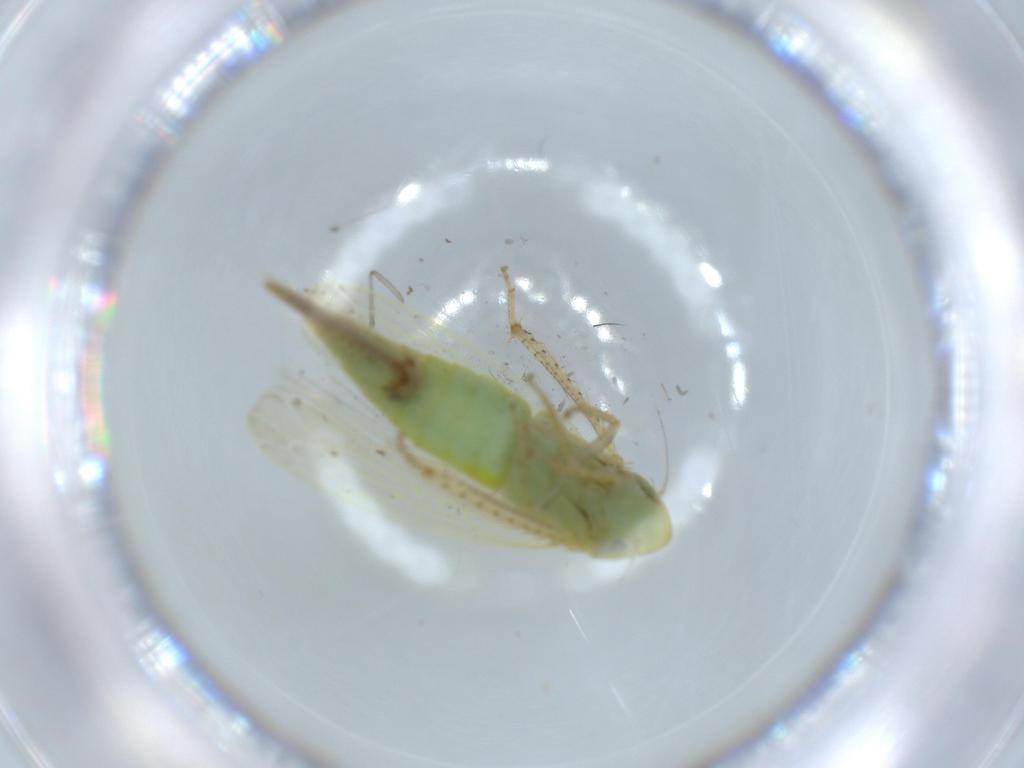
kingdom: Animalia
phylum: Arthropoda
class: Insecta
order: Hemiptera
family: Cicadellidae
